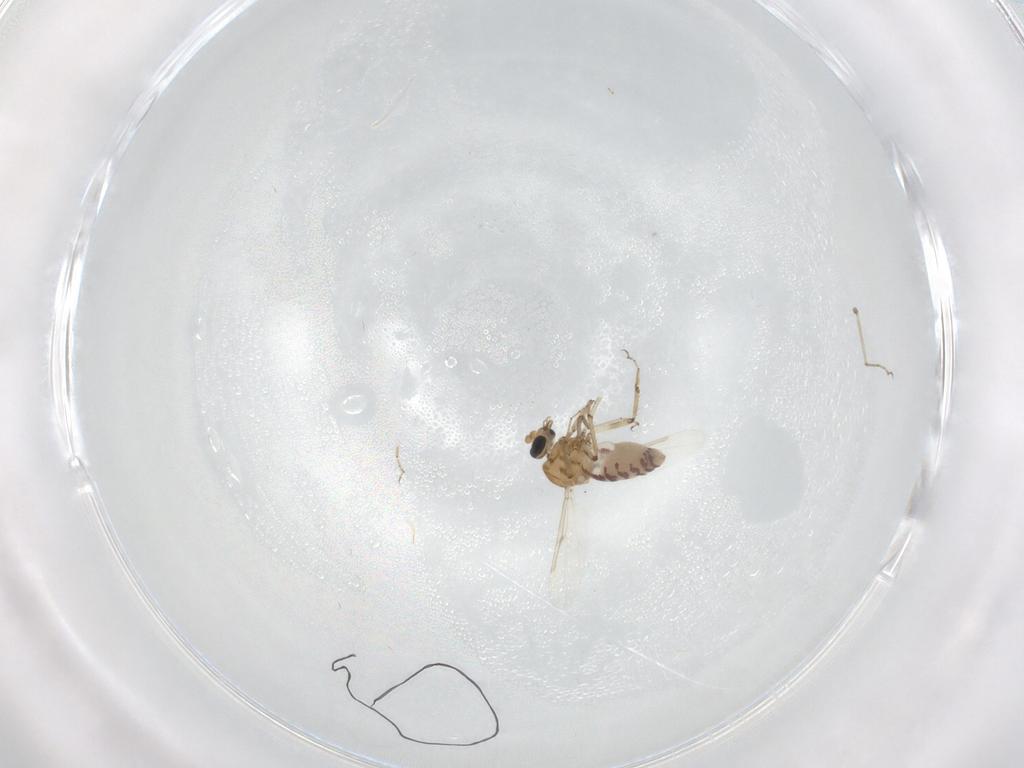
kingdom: Animalia
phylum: Arthropoda
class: Insecta
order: Diptera
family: Ceratopogonidae
